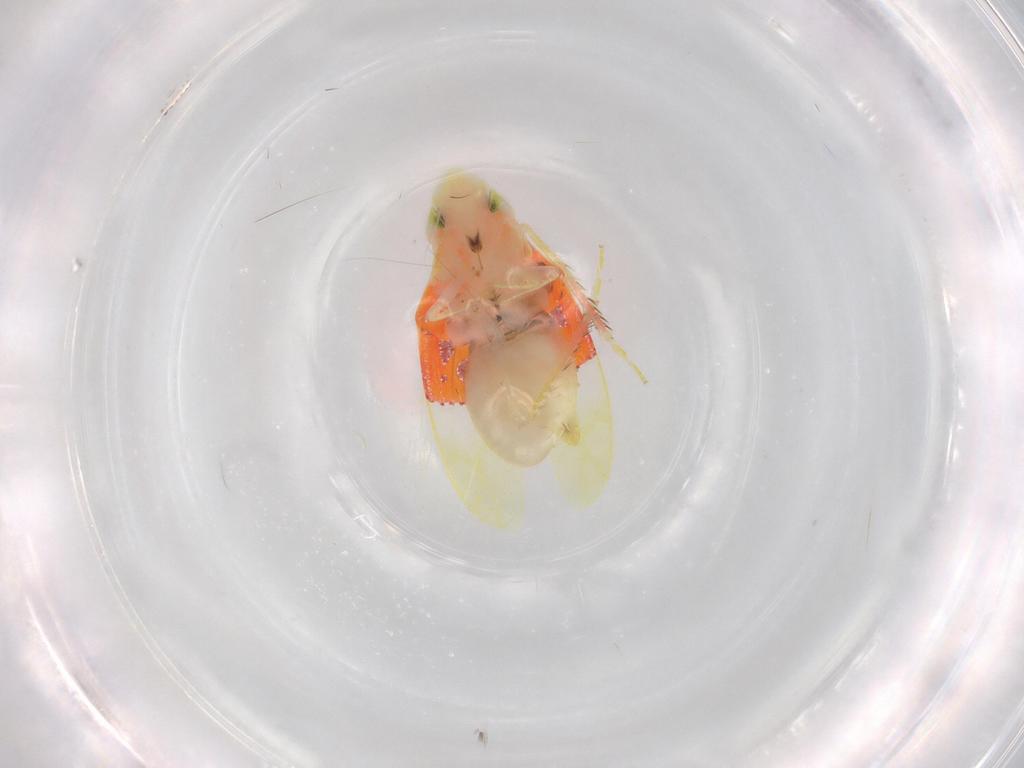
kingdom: Animalia
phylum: Arthropoda
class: Insecta
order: Hemiptera
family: Cicadellidae
